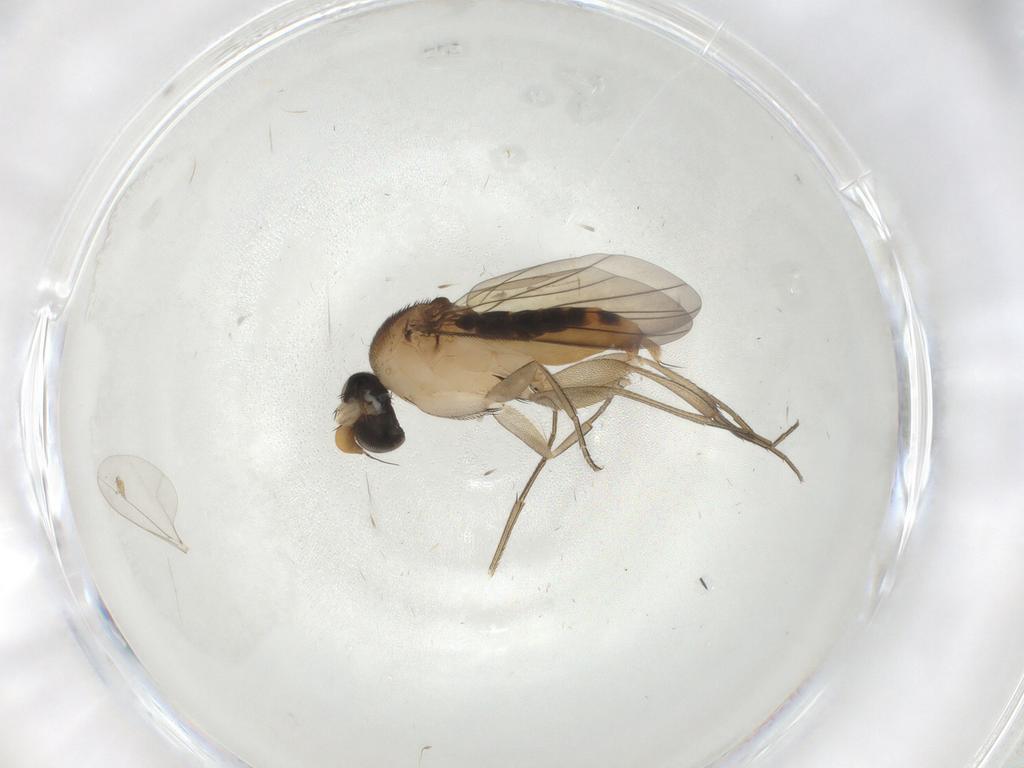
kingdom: Animalia
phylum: Arthropoda
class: Insecta
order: Diptera
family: Phoridae
